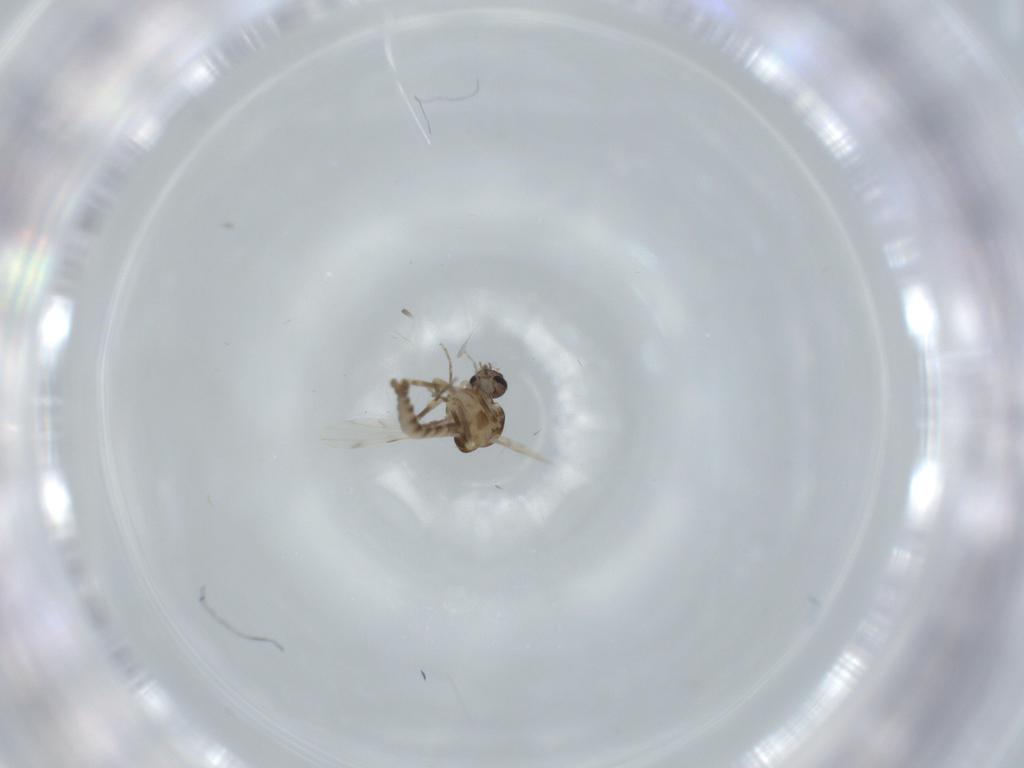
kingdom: Animalia
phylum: Arthropoda
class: Insecta
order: Diptera
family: Ceratopogonidae
